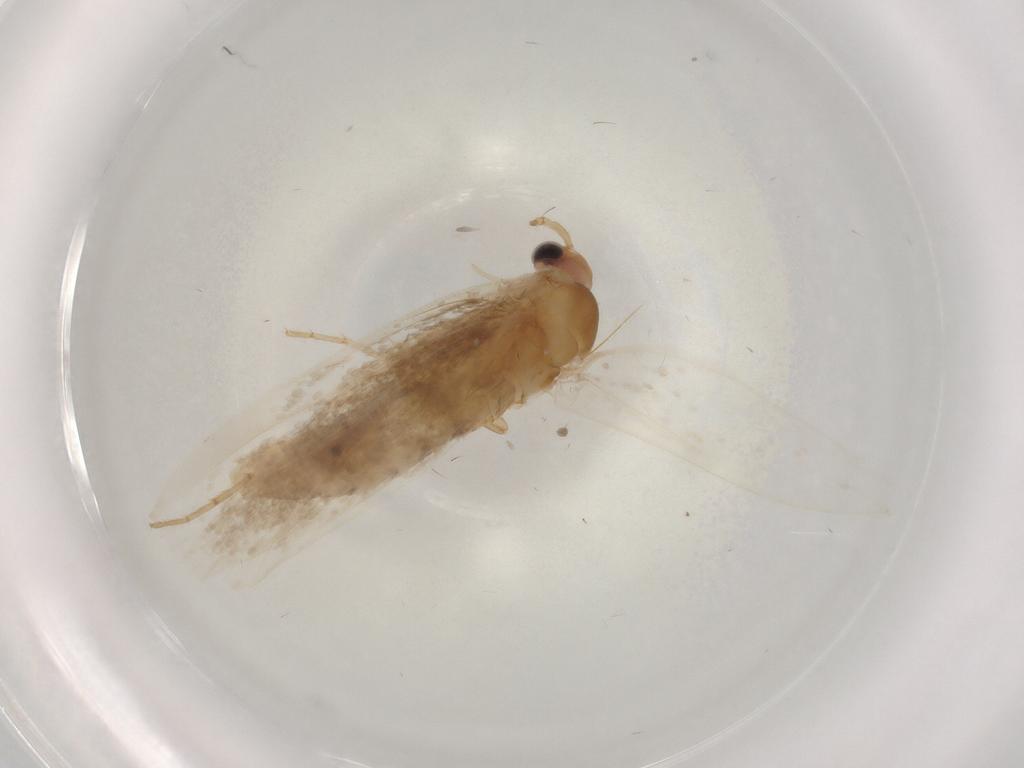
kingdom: Animalia
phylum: Arthropoda
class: Insecta
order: Lepidoptera
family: Argyresthiidae
